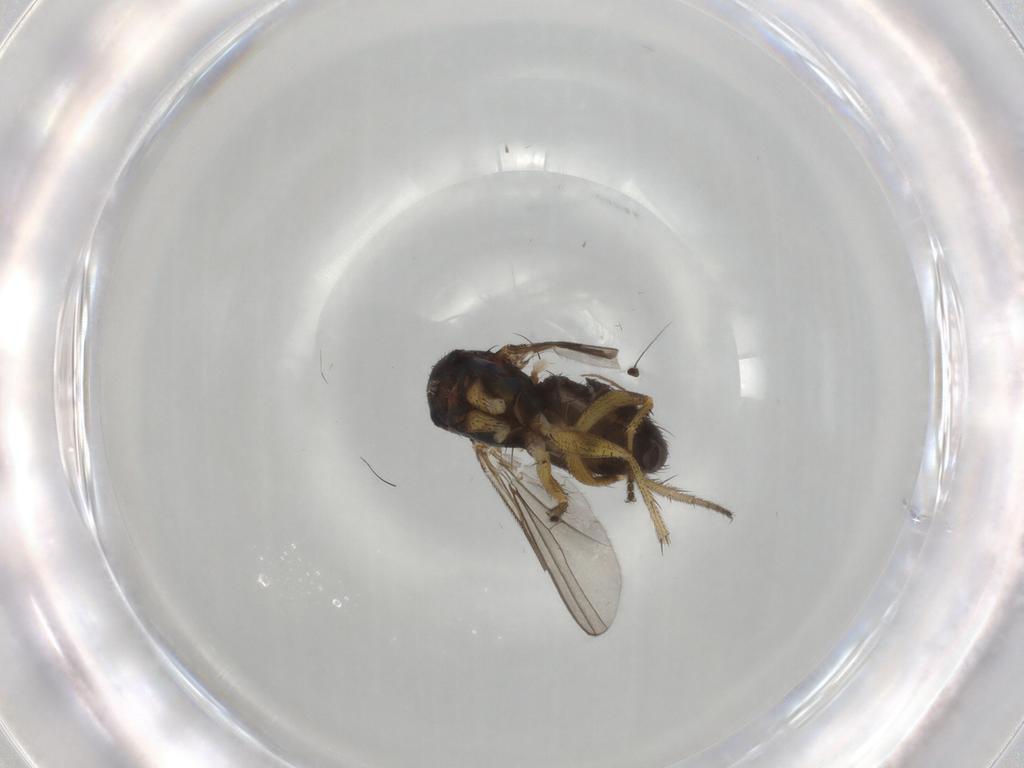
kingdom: Animalia
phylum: Arthropoda
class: Insecta
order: Diptera
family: Dolichopodidae
